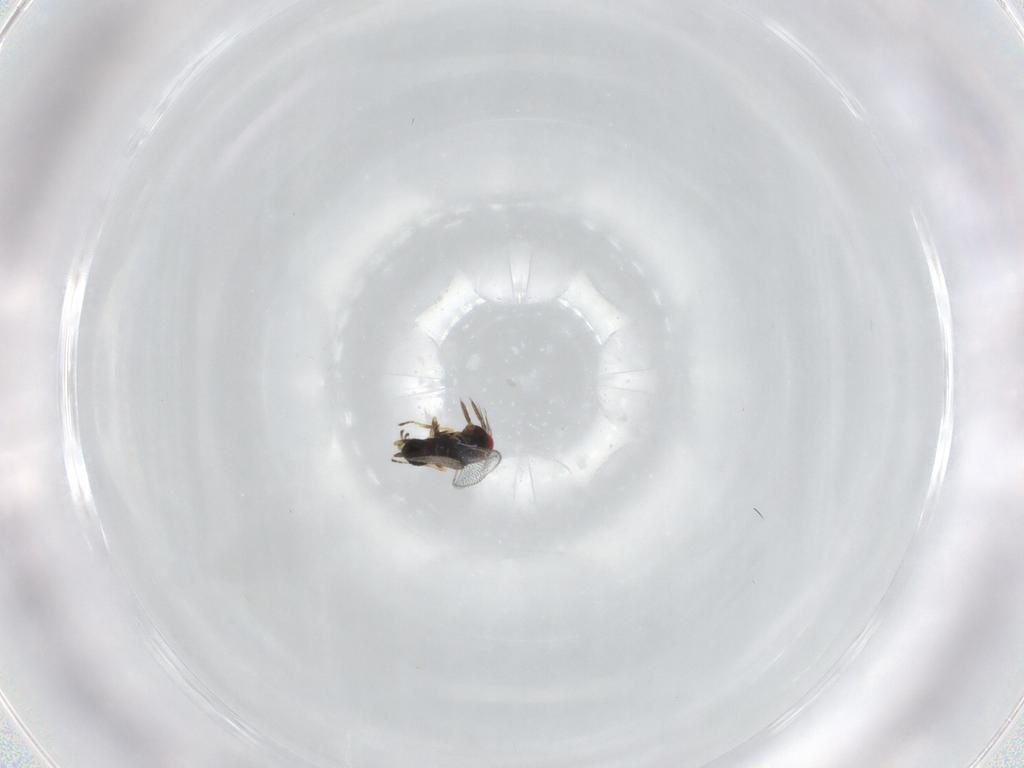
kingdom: Animalia
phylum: Arthropoda
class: Insecta
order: Hymenoptera
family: Eulophidae
